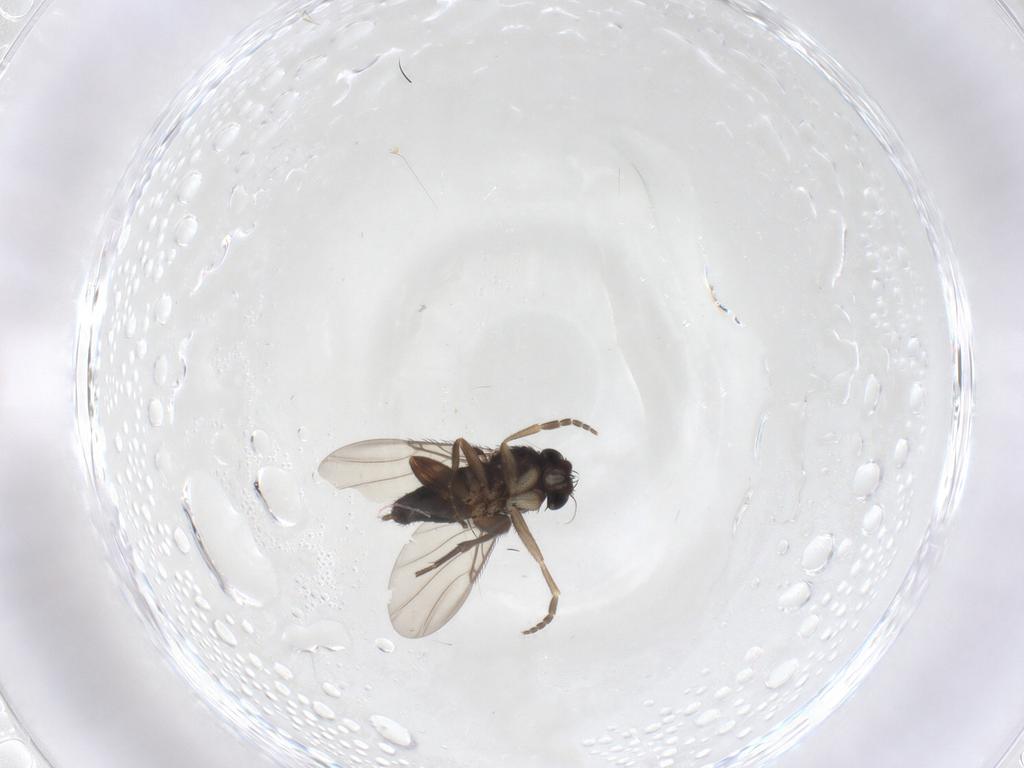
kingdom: Animalia
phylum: Arthropoda
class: Insecta
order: Diptera
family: Phoridae
